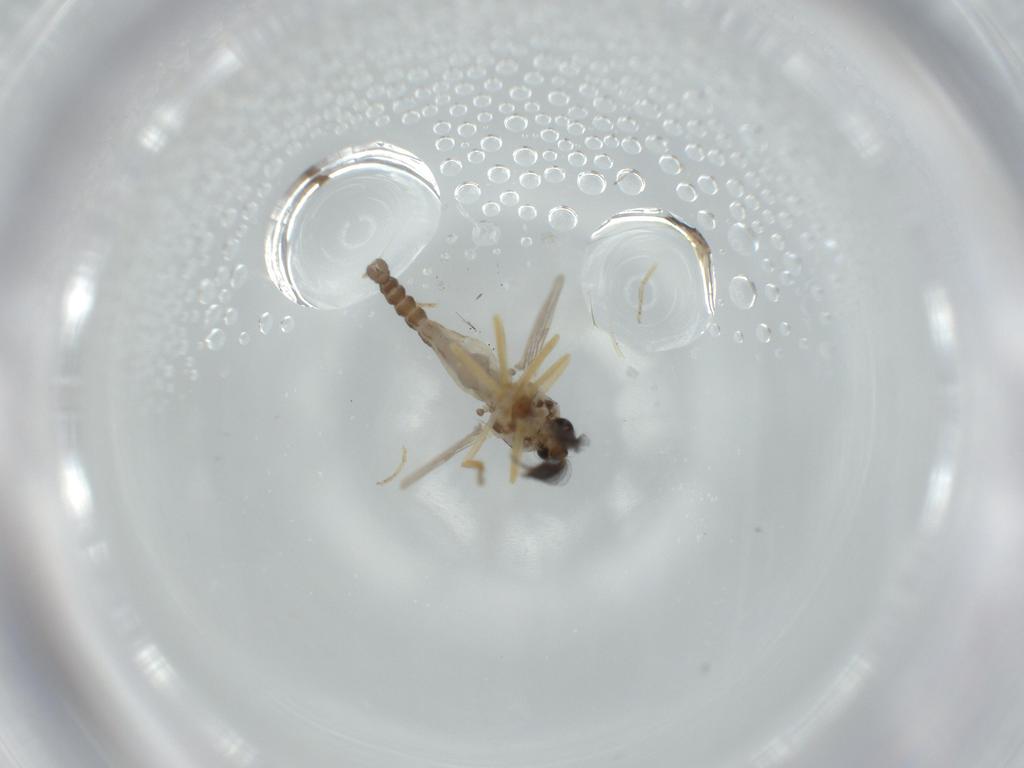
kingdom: Animalia
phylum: Arthropoda
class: Insecta
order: Diptera
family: Ceratopogonidae
